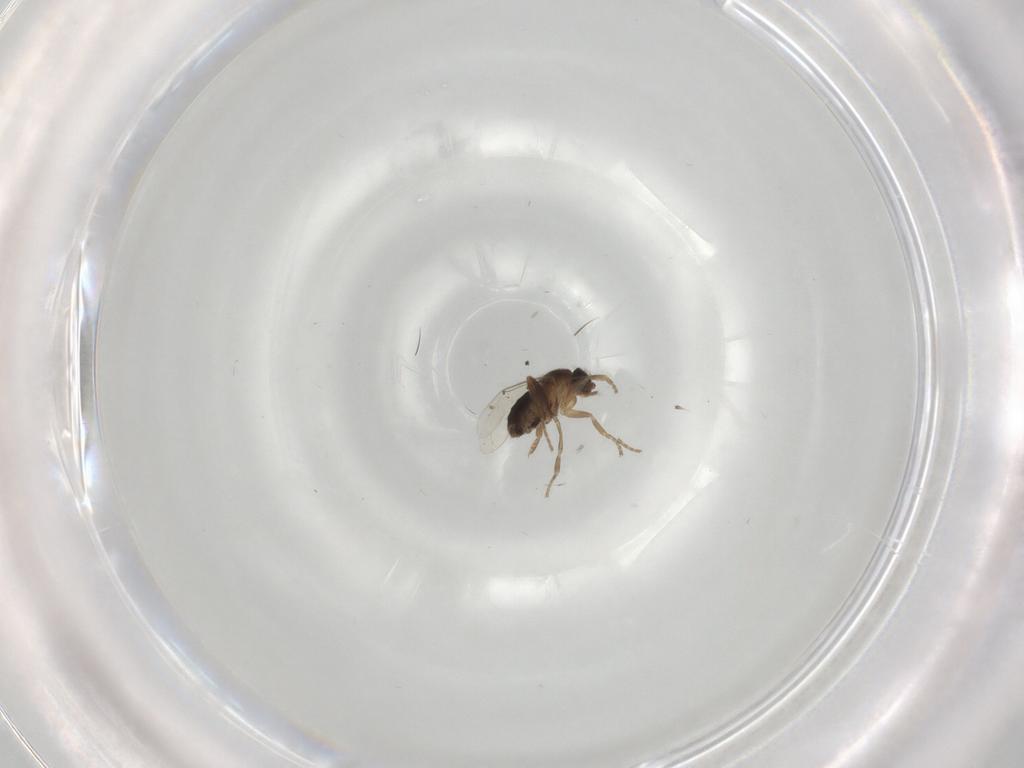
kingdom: Animalia
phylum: Arthropoda
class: Insecta
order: Diptera
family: Phoridae
